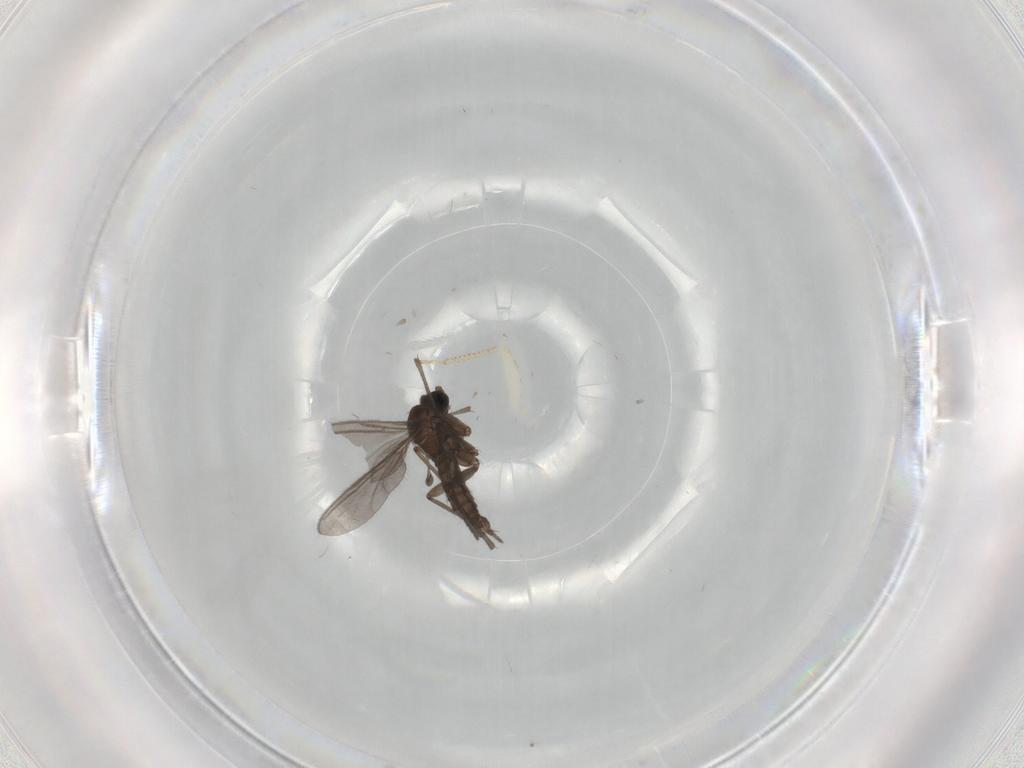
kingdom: Animalia
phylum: Arthropoda
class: Insecta
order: Diptera
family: Sciaridae
